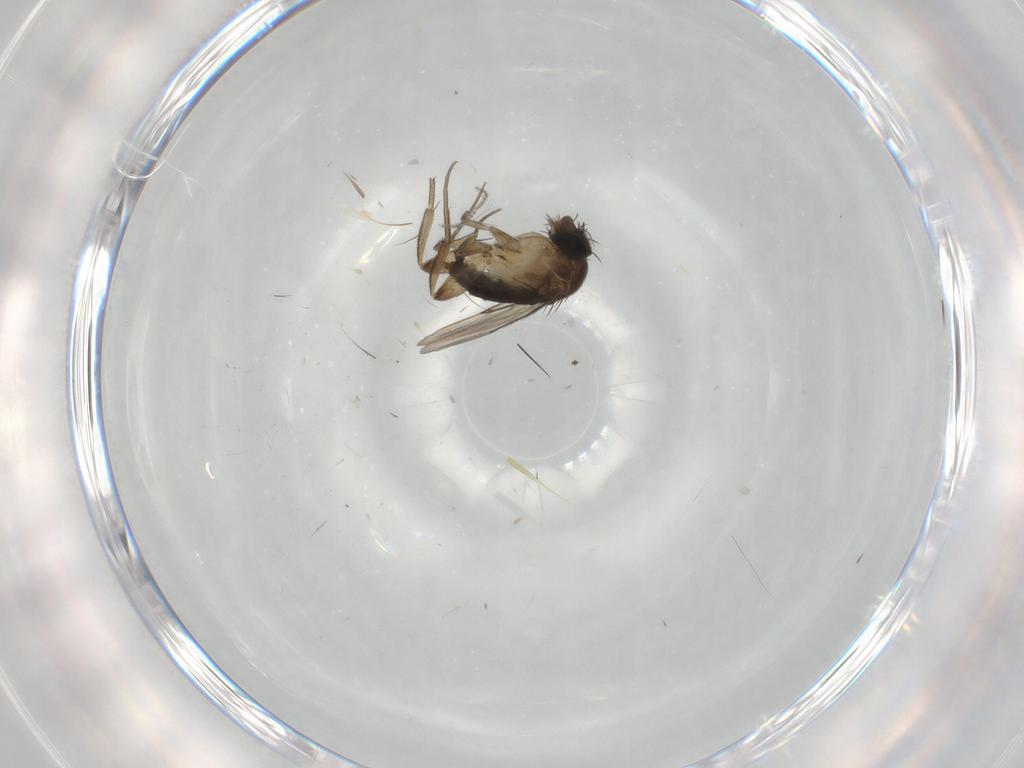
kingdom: Animalia
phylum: Arthropoda
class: Insecta
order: Diptera
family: Phoridae
